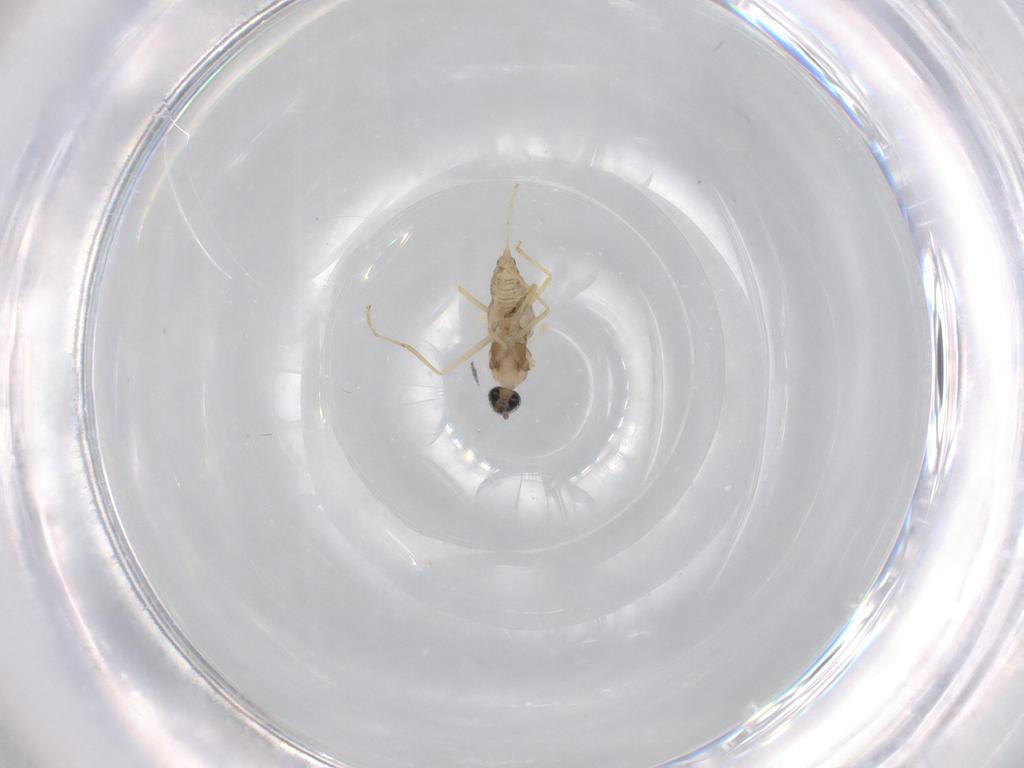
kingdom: Animalia
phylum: Arthropoda
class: Insecta
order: Diptera
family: Cecidomyiidae
